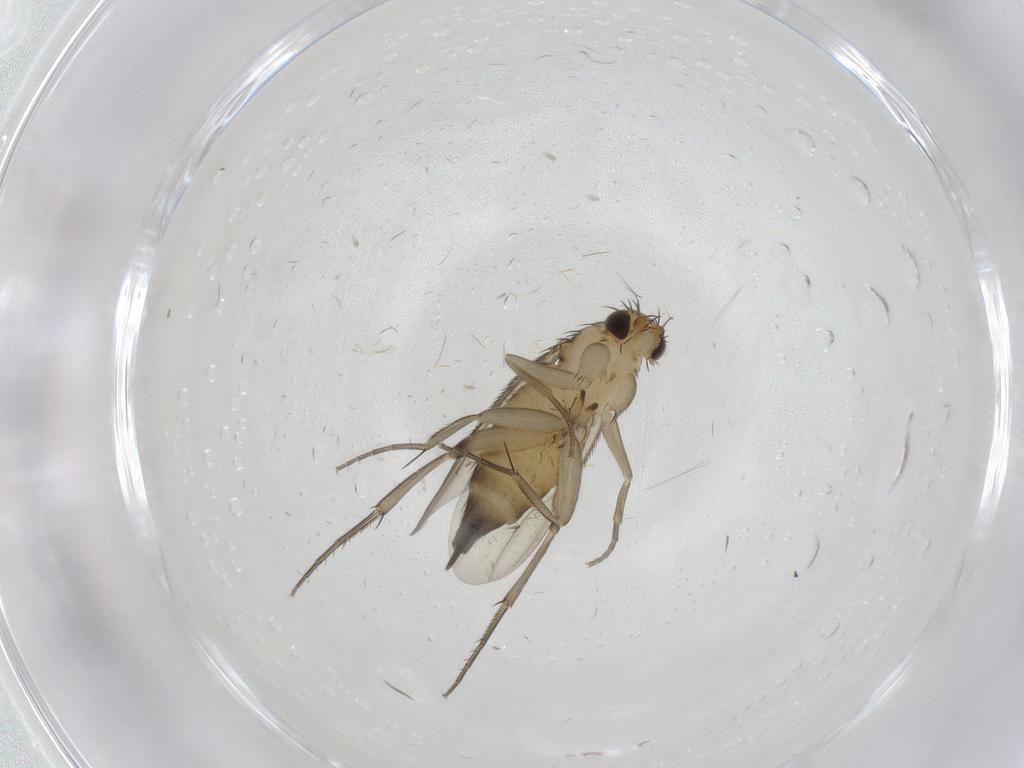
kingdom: Animalia
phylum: Arthropoda
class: Insecta
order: Diptera
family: Phoridae
